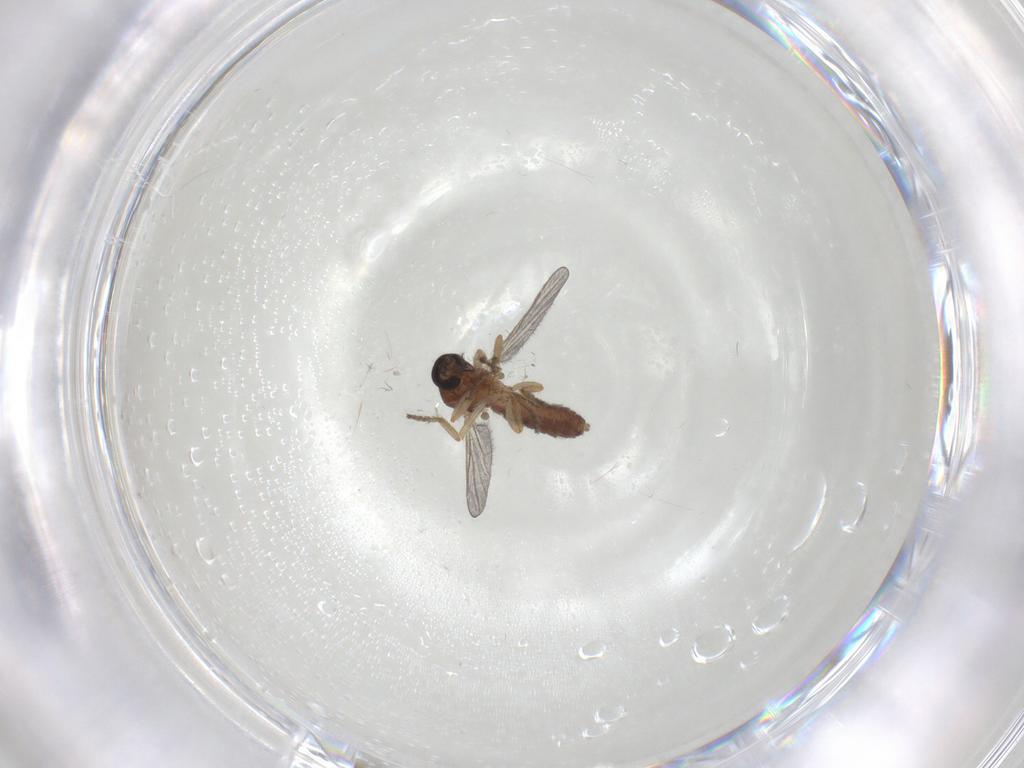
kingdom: Animalia
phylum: Arthropoda
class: Insecta
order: Diptera
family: Ceratopogonidae
